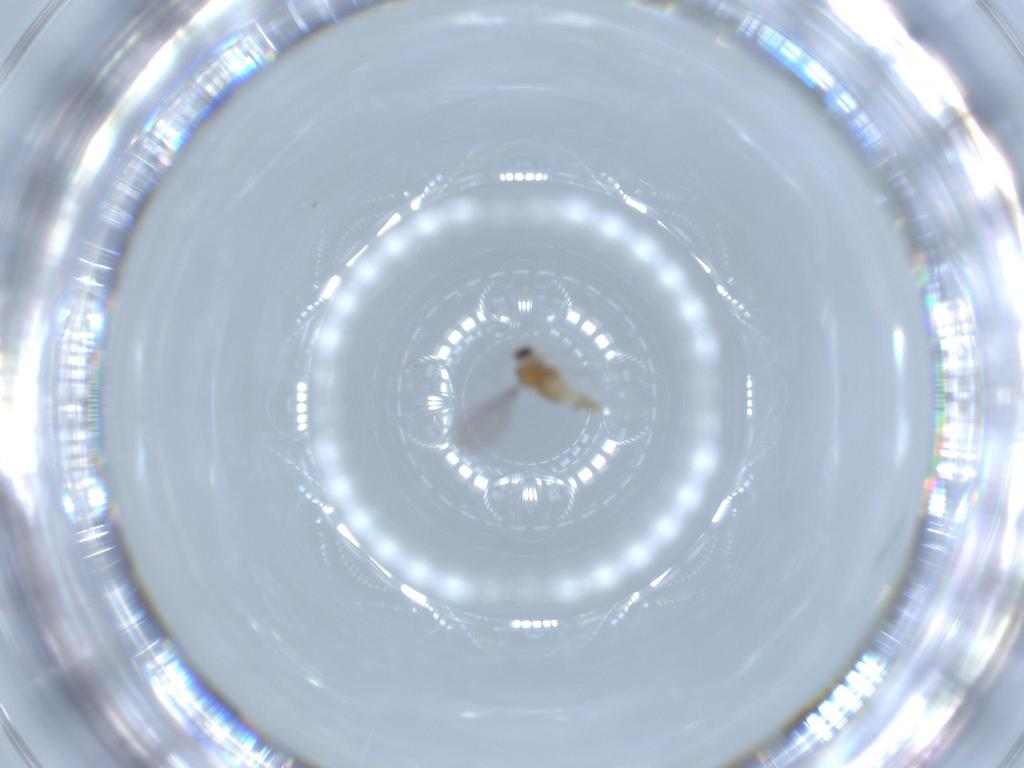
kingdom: Animalia
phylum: Arthropoda
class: Insecta
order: Diptera
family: Cecidomyiidae
